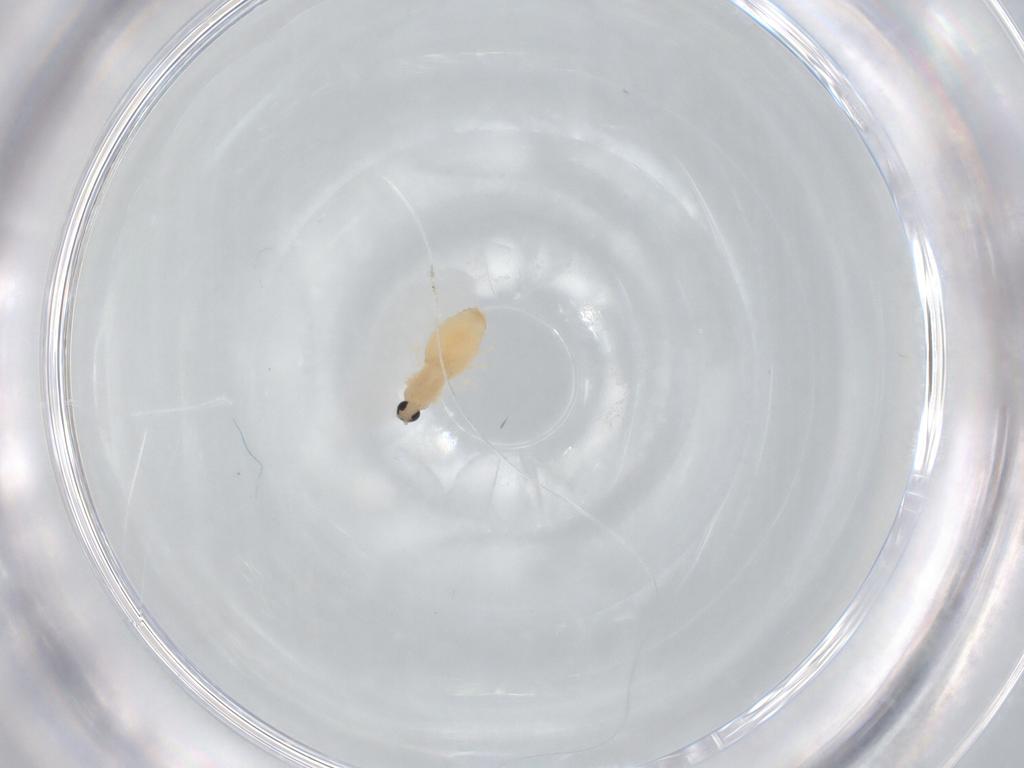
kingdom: Animalia
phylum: Arthropoda
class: Insecta
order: Diptera
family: Cecidomyiidae
